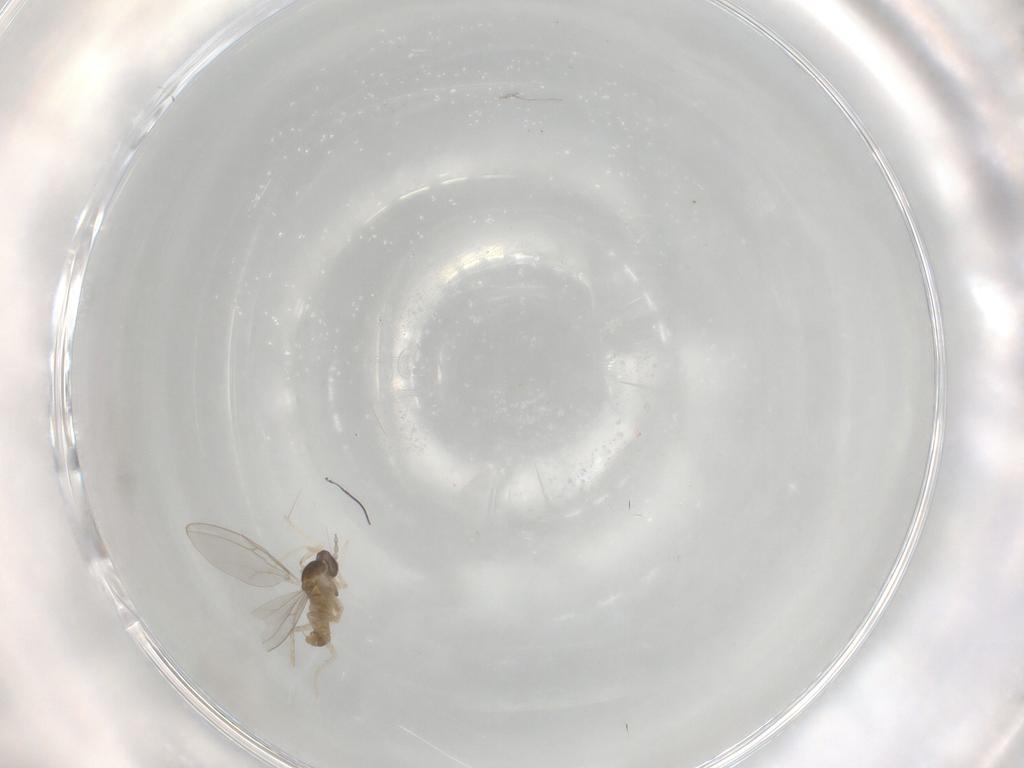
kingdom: Animalia
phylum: Arthropoda
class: Insecta
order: Diptera
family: Cecidomyiidae
